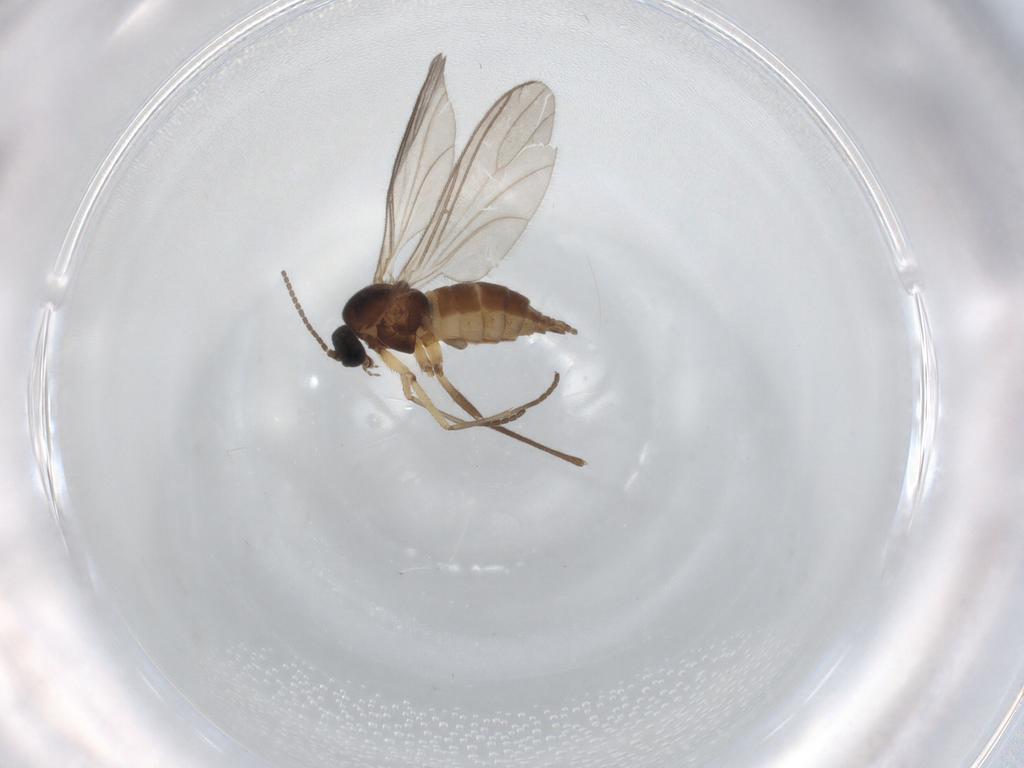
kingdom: Animalia
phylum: Arthropoda
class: Insecta
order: Diptera
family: Sciaridae
